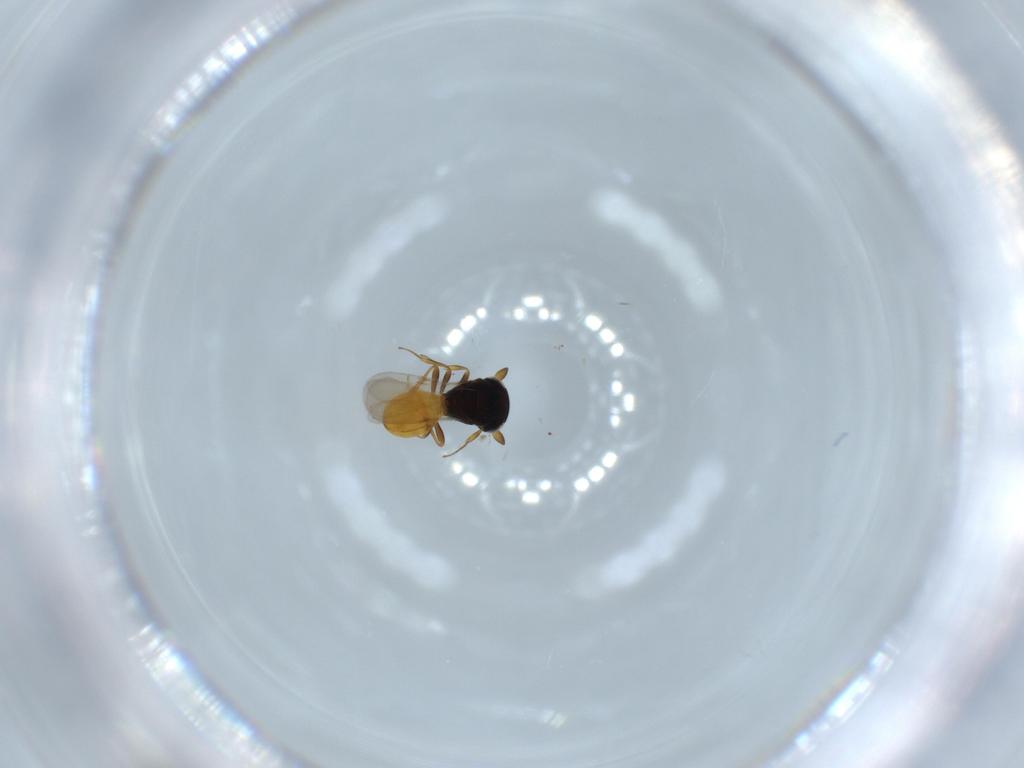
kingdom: Animalia
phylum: Arthropoda
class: Insecta
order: Hymenoptera
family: Scelionidae
